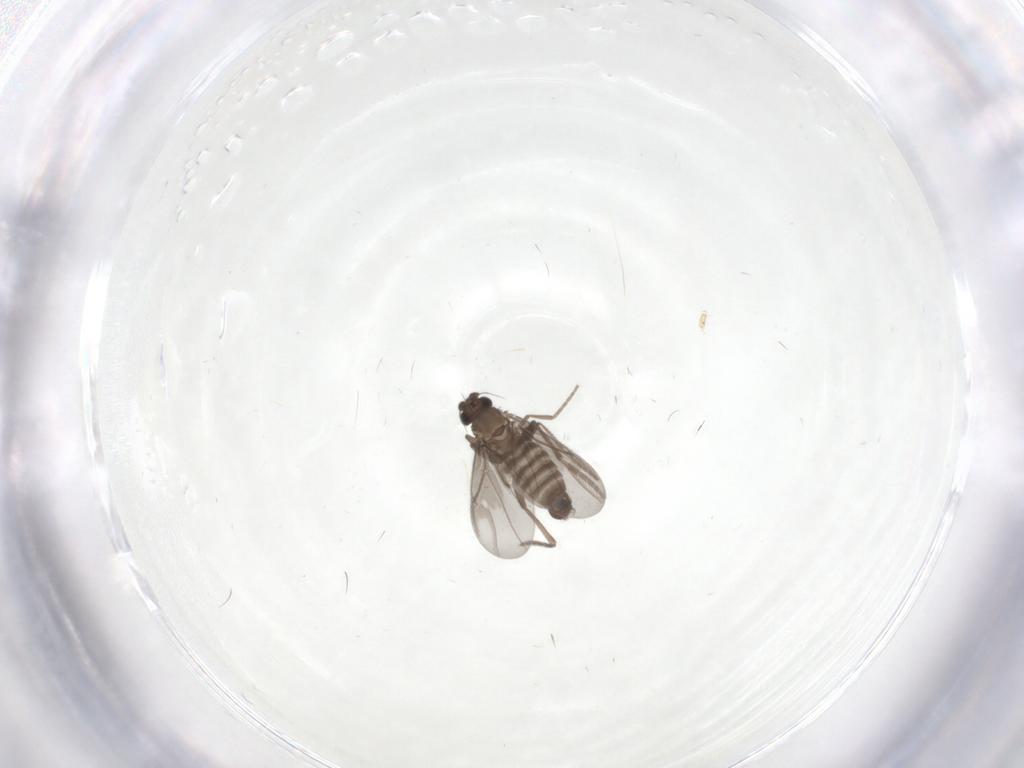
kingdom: Animalia
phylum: Arthropoda
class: Insecta
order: Diptera
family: Phoridae
